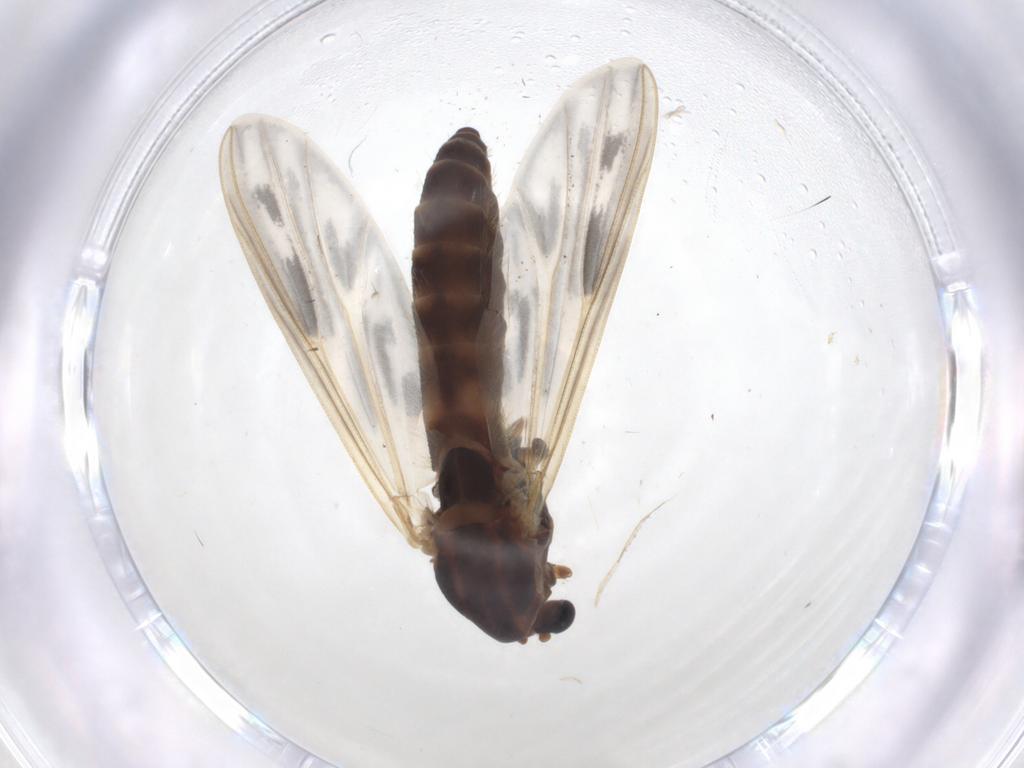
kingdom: Animalia
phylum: Arthropoda
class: Insecta
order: Diptera
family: Chironomidae
